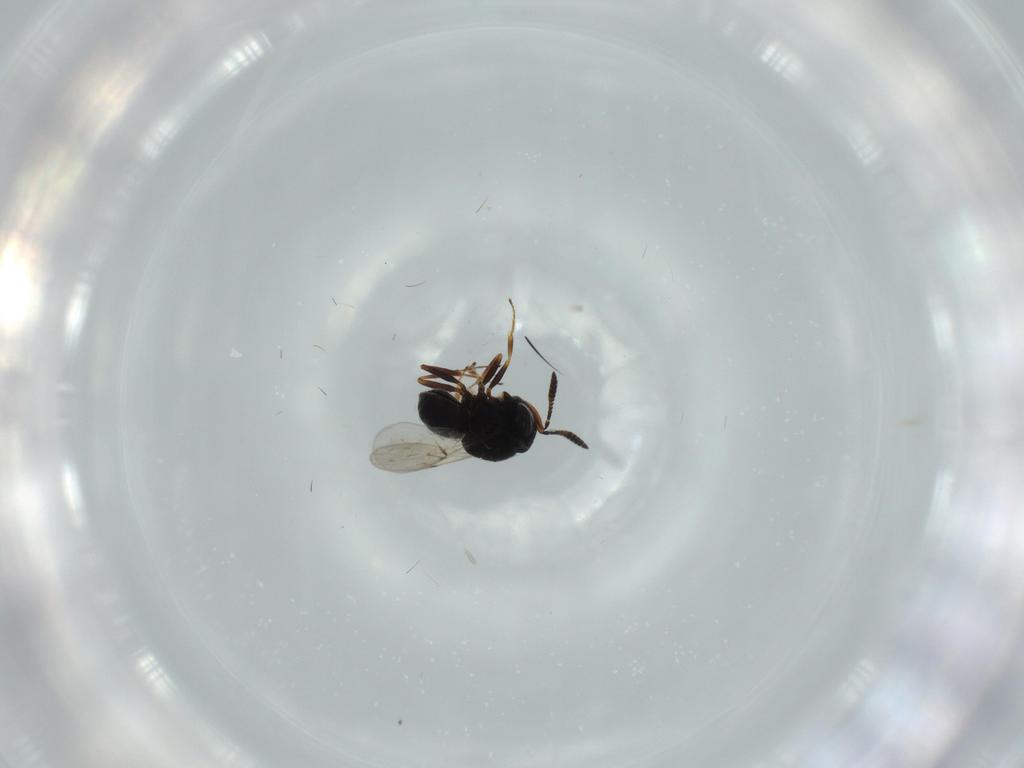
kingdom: Animalia
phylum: Arthropoda
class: Insecta
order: Hymenoptera
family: Scelionidae
